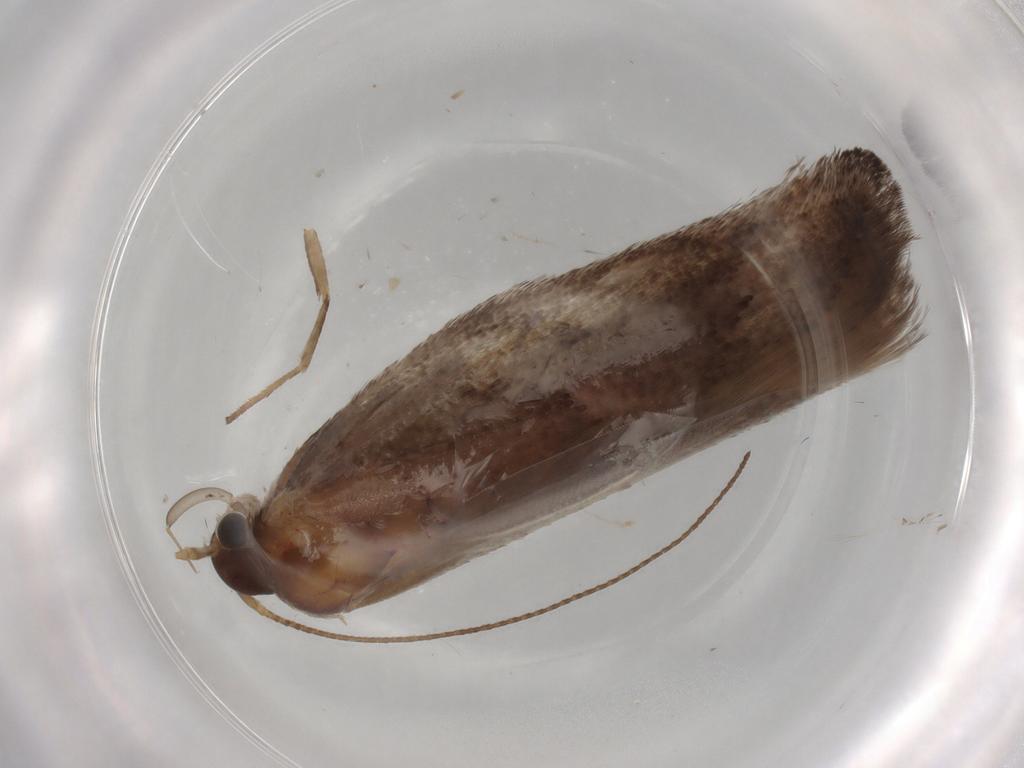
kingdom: Animalia
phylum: Arthropoda
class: Insecta
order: Lepidoptera
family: Nymphalidae
